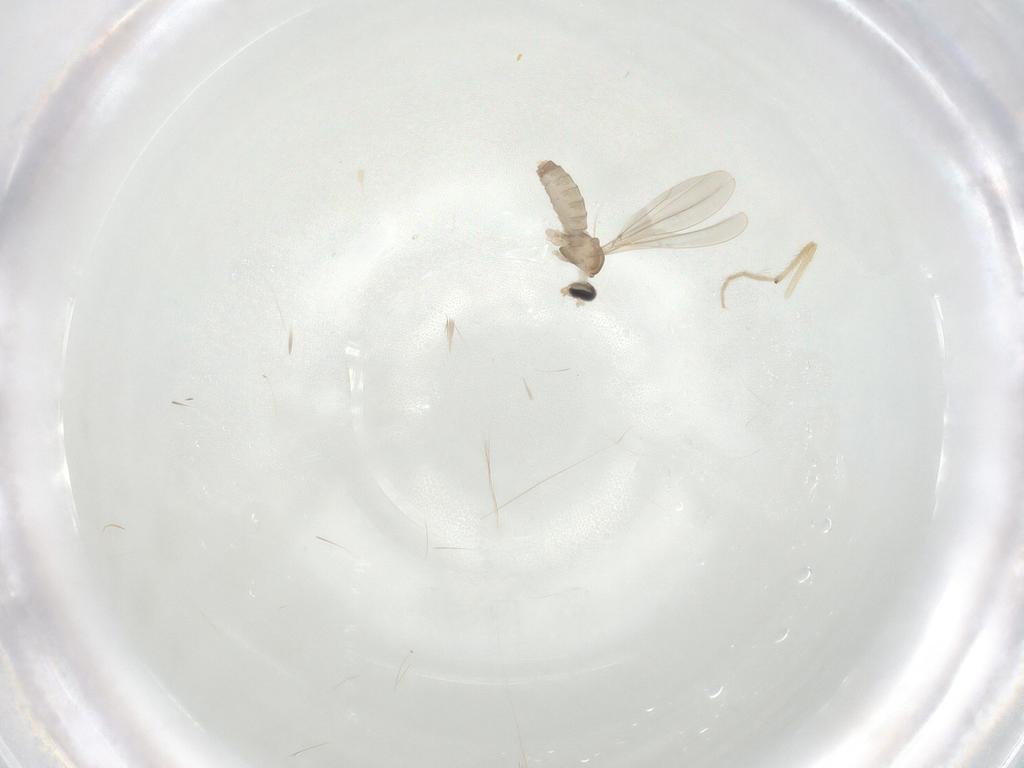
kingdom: Animalia
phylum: Arthropoda
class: Insecta
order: Diptera
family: Cecidomyiidae
